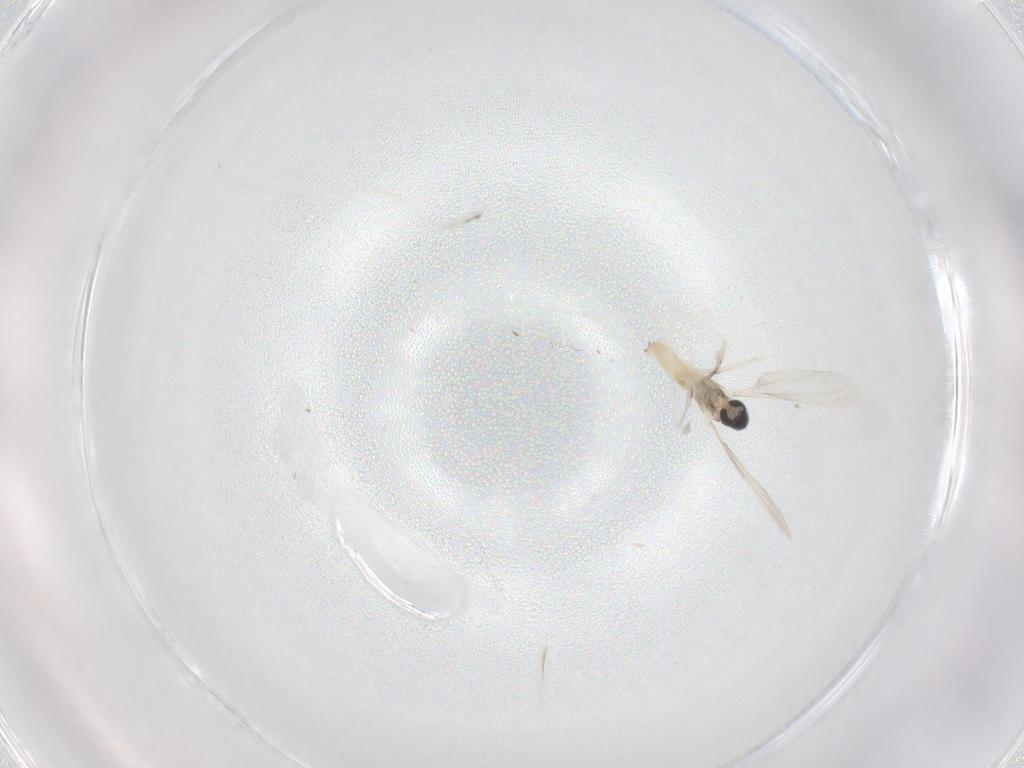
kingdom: Animalia
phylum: Arthropoda
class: Insecta
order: Diptera
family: Cecidomyiidae
